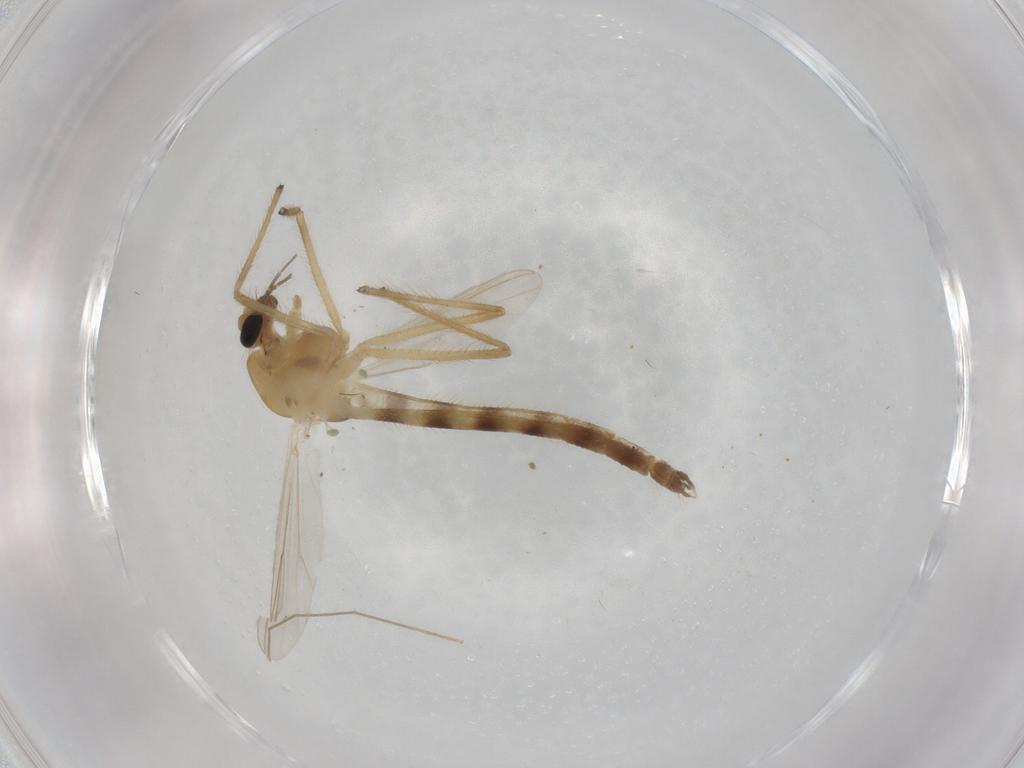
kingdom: Animalia
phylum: Arthropoda
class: Insecta
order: Diptera
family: Chironomidae
